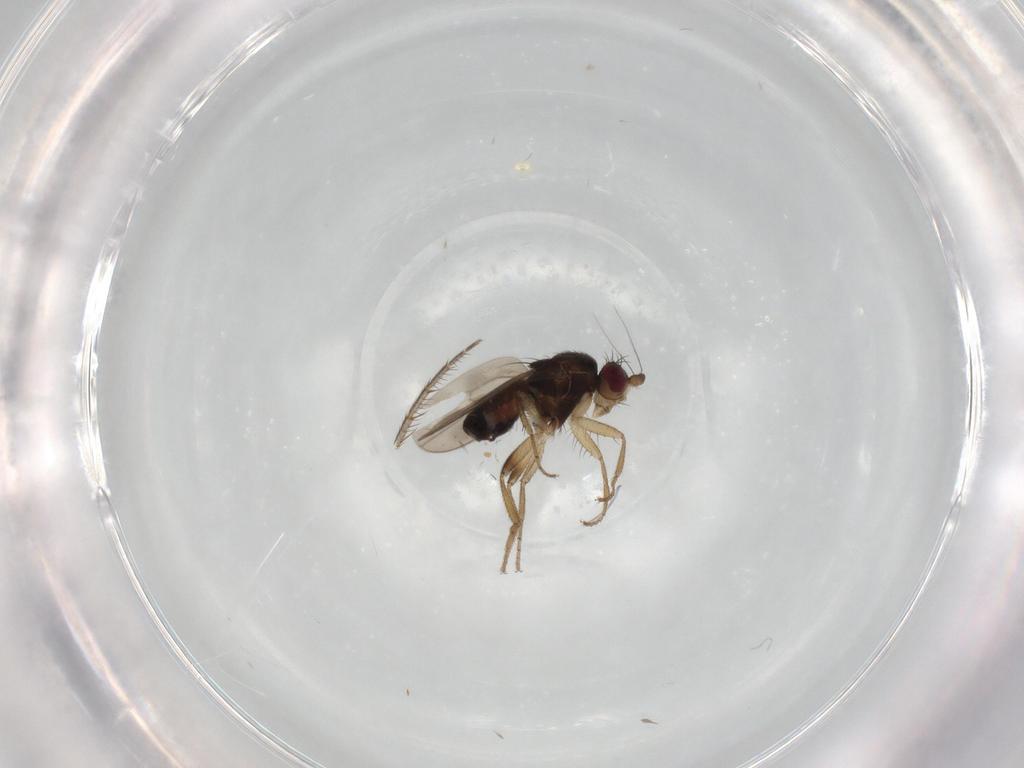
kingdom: Animalia
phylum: Arthropoda
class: Insecta
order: Diptera
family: Sphaeroceridae
